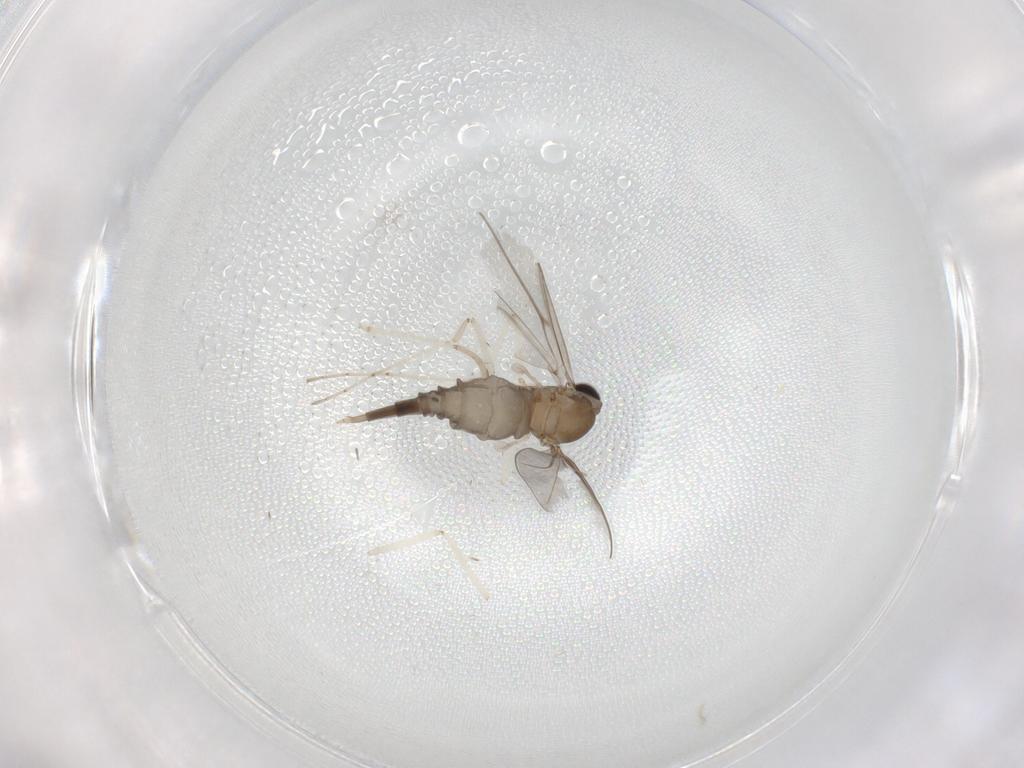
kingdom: Animalia
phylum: Arthropoda
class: Insecta
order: Diptera
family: Cecidomyiidae
